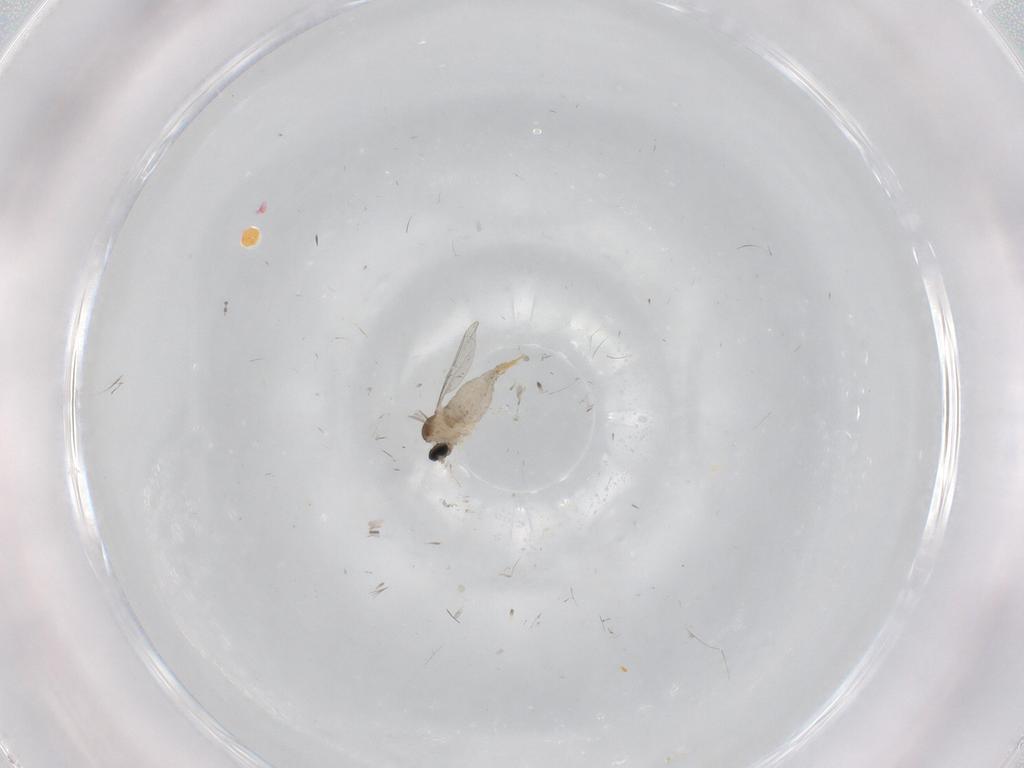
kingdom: Animalia
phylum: Arthropoda
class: Insecta
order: Diptera
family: Cecidomyiidae
